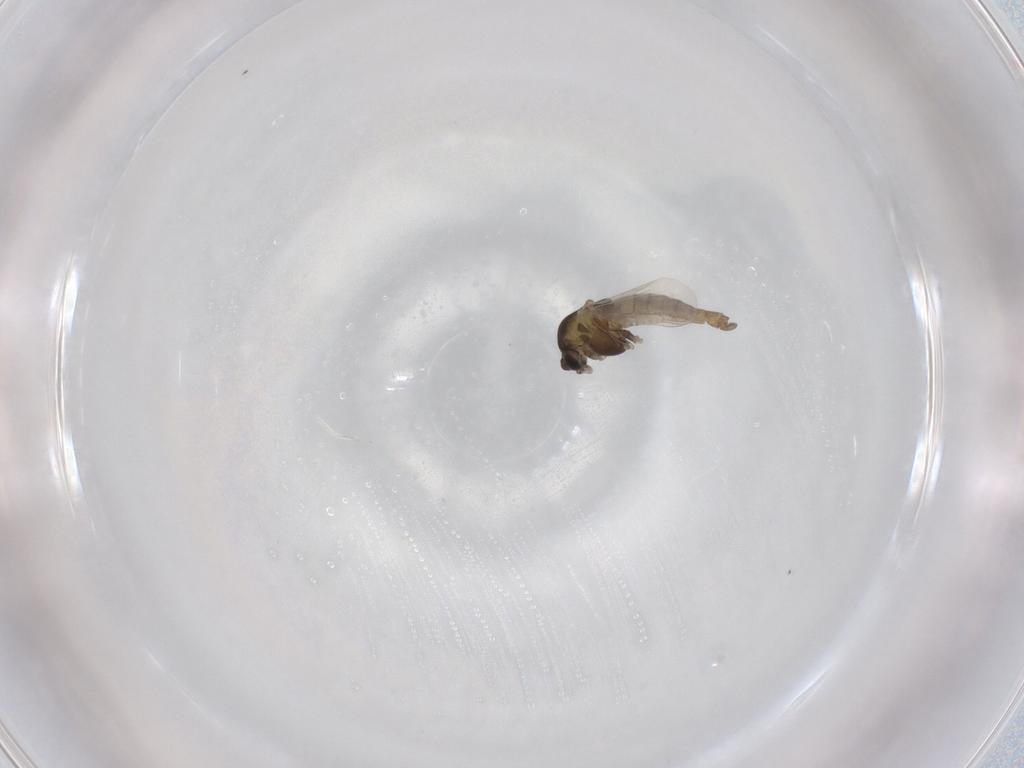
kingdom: Animalia
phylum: Arthropoda
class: Insecta
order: Diptera
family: Chironomidae
